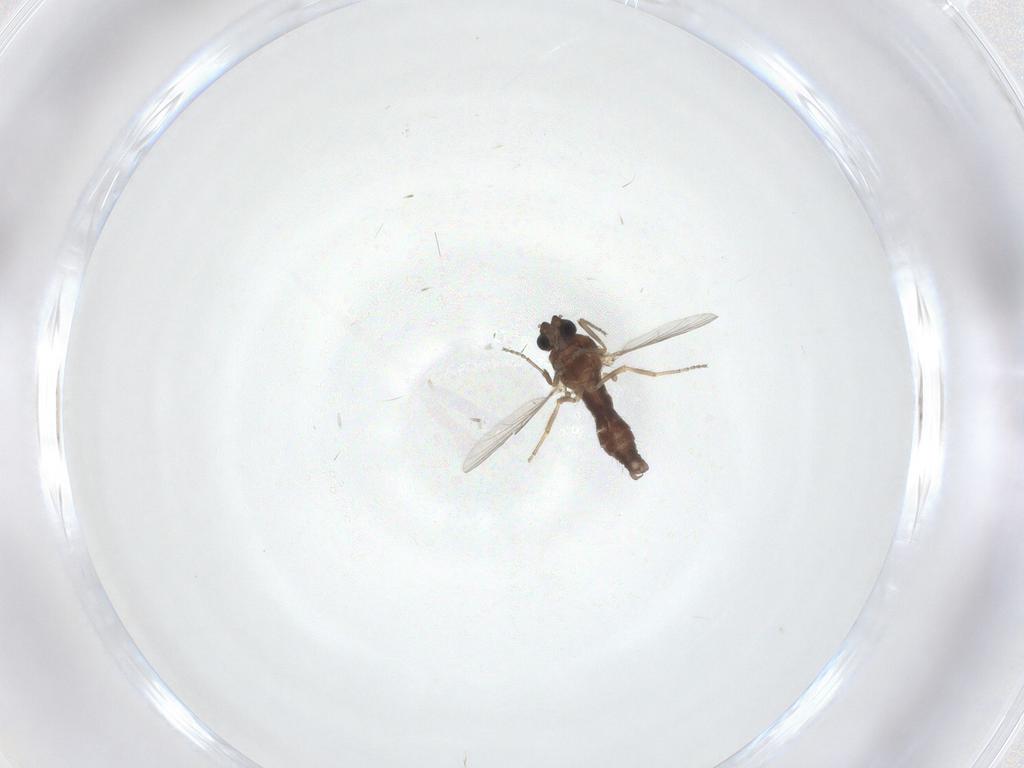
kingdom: Animalia
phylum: Arthropoda
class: Insecta
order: Diptera
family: Ceratopogonidae
